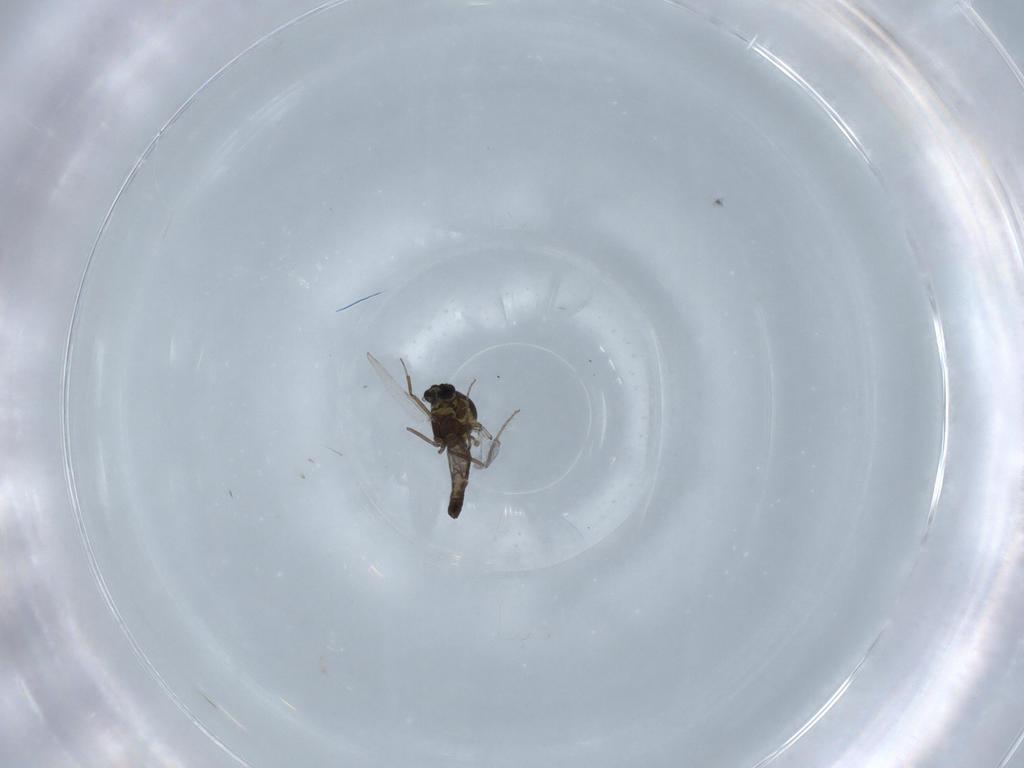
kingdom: Animalia
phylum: Arthropoda
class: Insecta
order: Diptera
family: Ceratopogonidae
